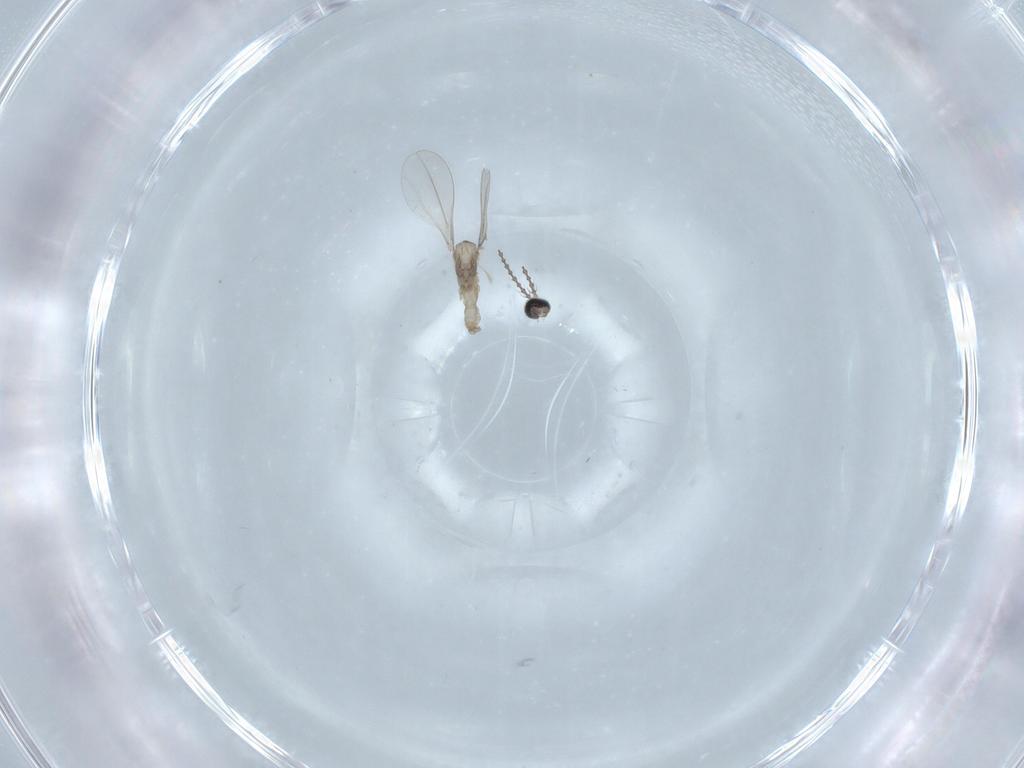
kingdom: Animalia
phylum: Arthropoda
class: Insecta
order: Diptera
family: Cecidomyiidae
